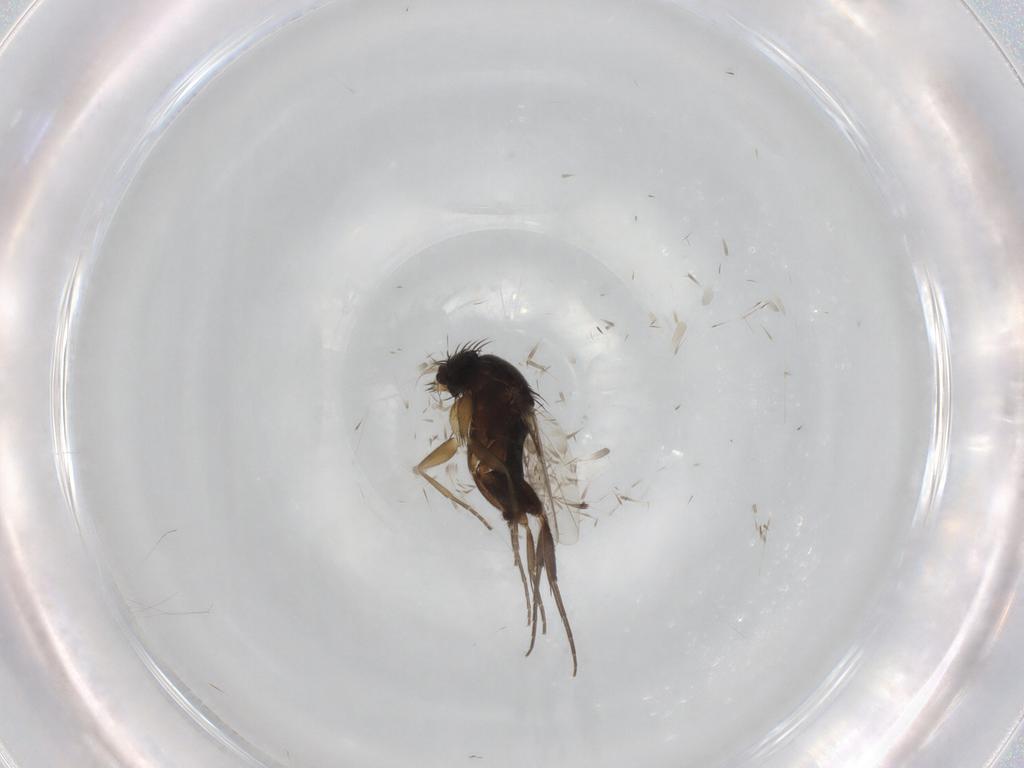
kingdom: Animalia
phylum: Arthropoda
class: Insecta
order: Diptera
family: Phoridae
